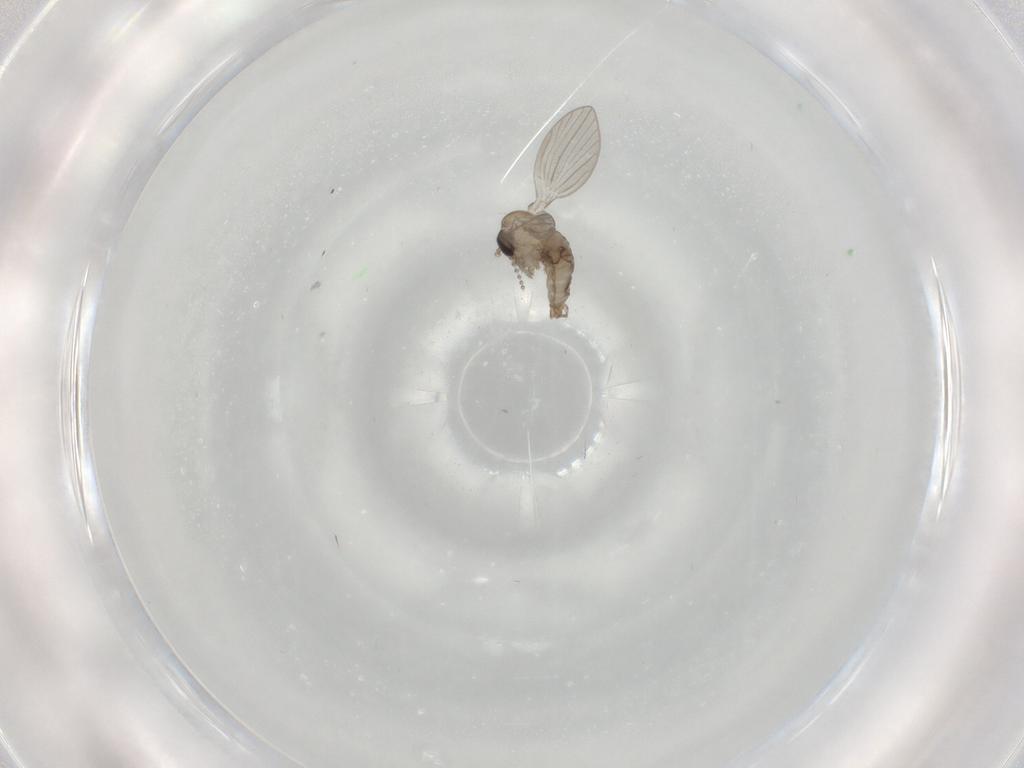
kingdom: Animalia
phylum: Arthropoda
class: Insecta
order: Diptera
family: Psychodidae
